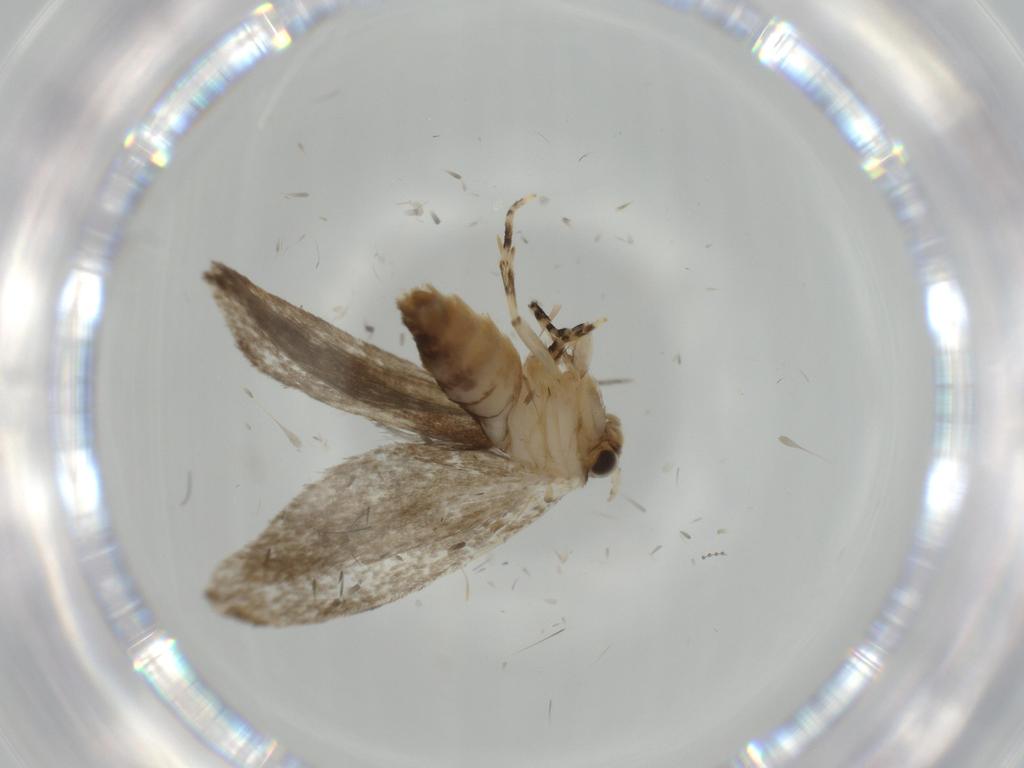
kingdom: Animalia
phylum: Arthropoda
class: Insecta
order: Lepidoptera
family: Tineidae
